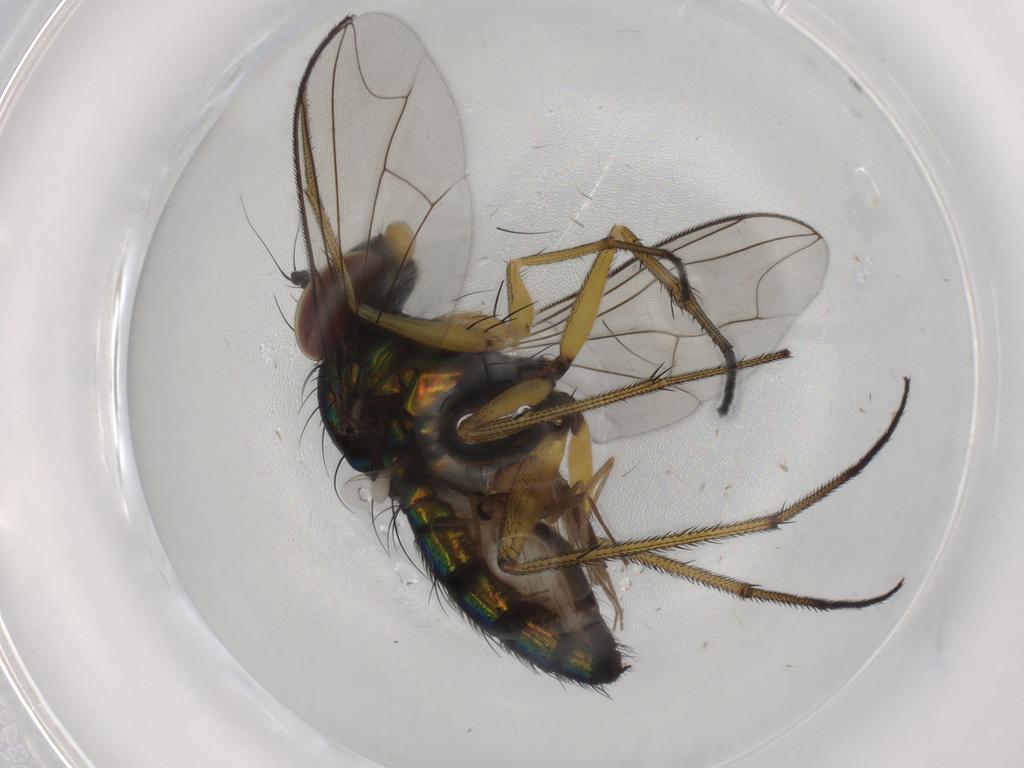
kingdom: Animalia
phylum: Arthropoda
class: Insecta
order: Diptera
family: Dolichopodidae
